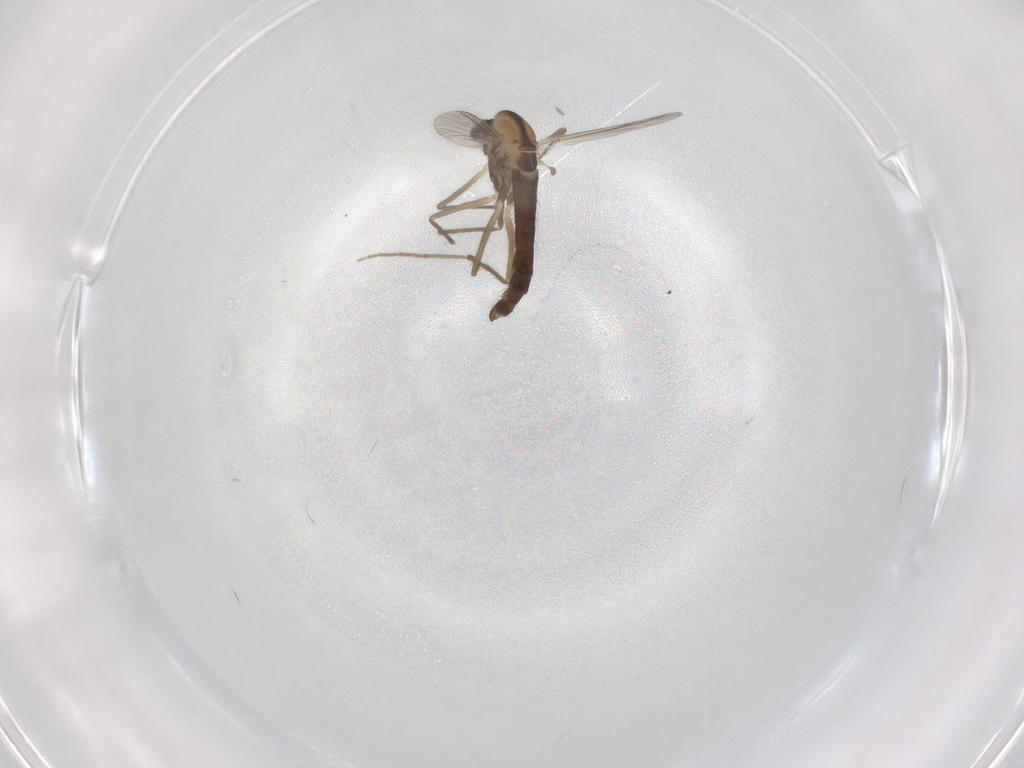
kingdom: Animalia
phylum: Arthropoda
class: Insecta
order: Diptera
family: Chironomidae
